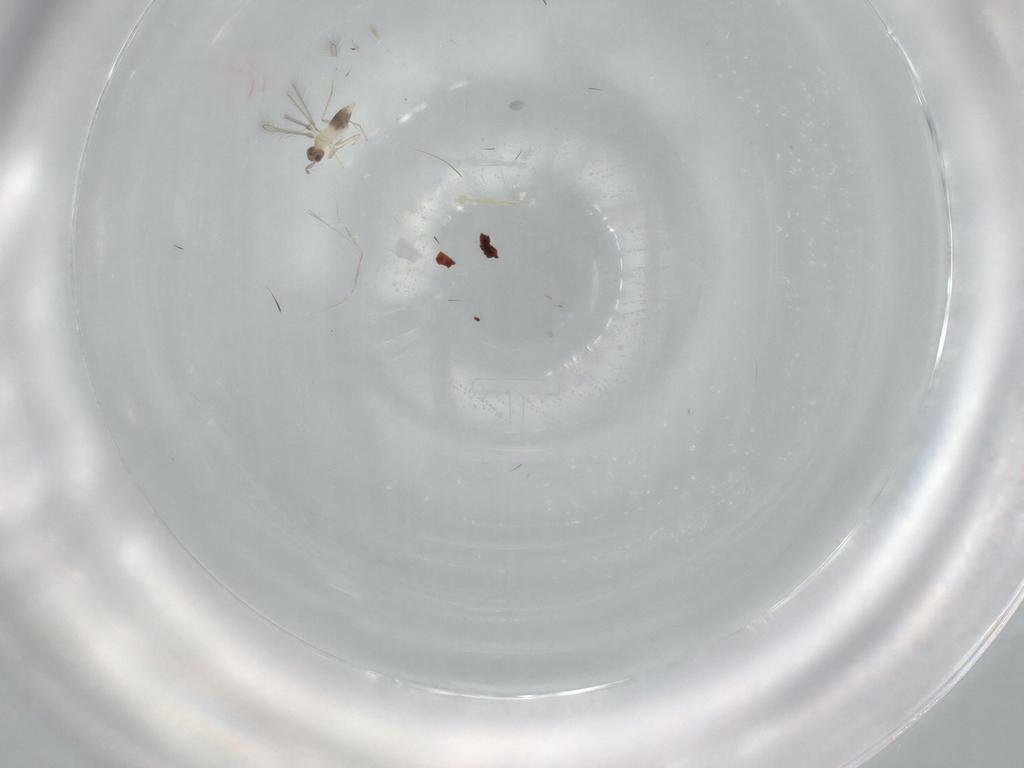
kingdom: Animalia
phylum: Arthropoda
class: Insecta
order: Hymenoptera
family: Mymaridae
